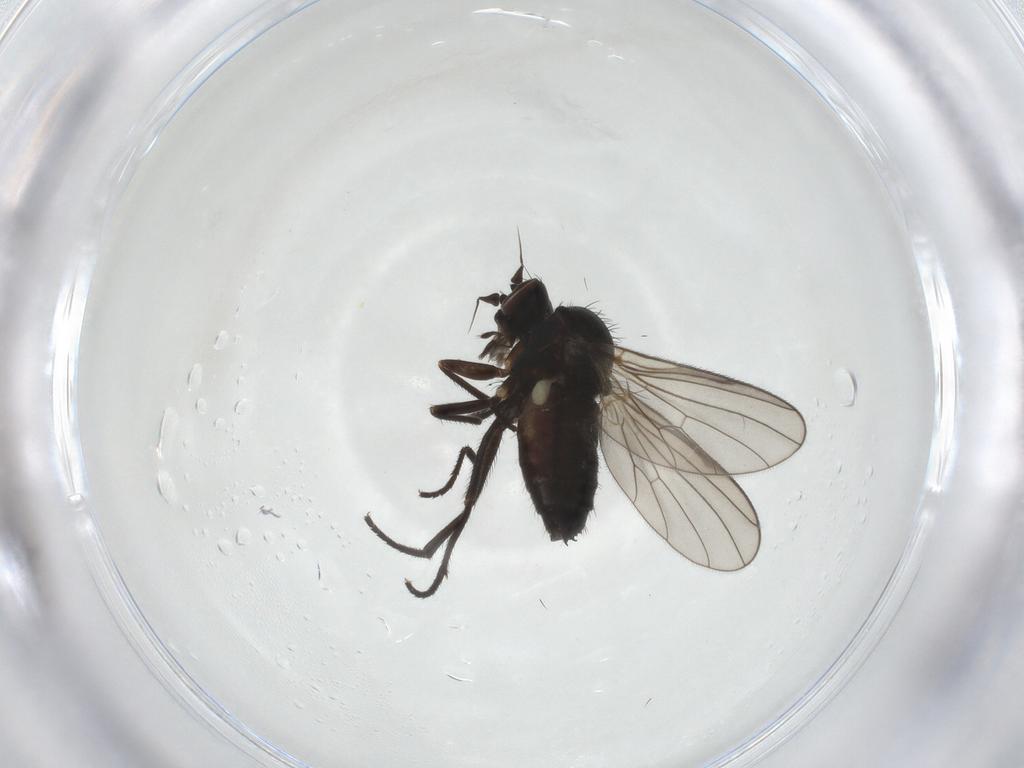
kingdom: Animalia
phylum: Arthropoda
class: Insecta
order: Diptera
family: Dolichopodidae
